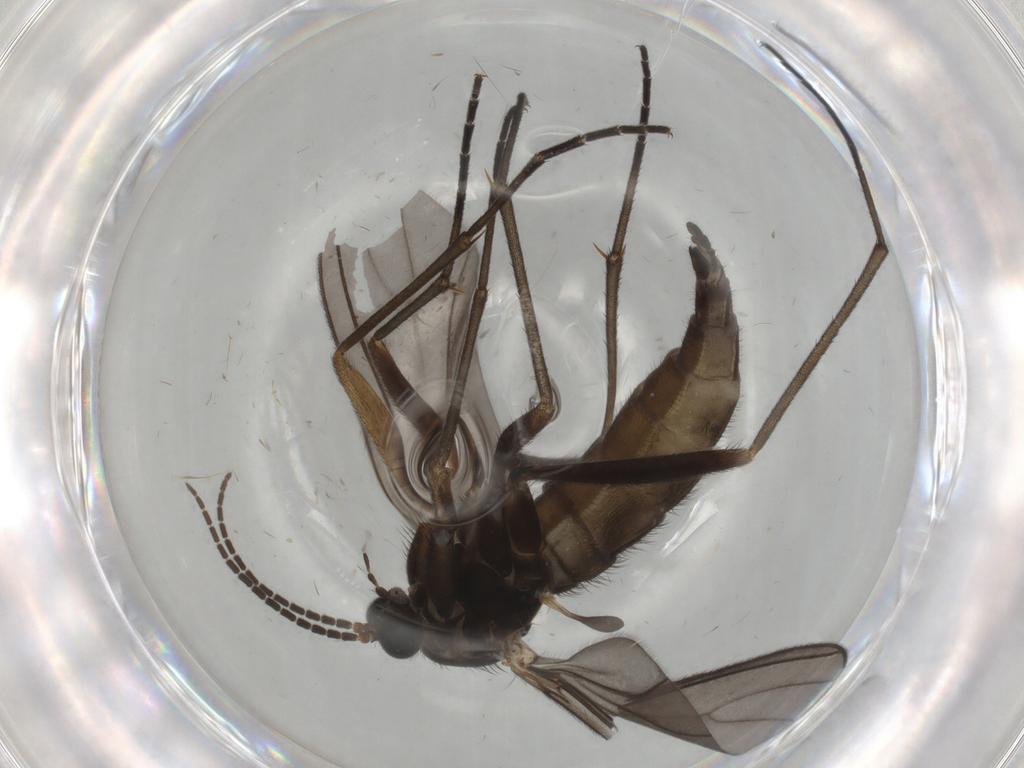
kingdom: Animalia
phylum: Arthropoda
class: Insecta
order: Diptera
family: Sciaridae
